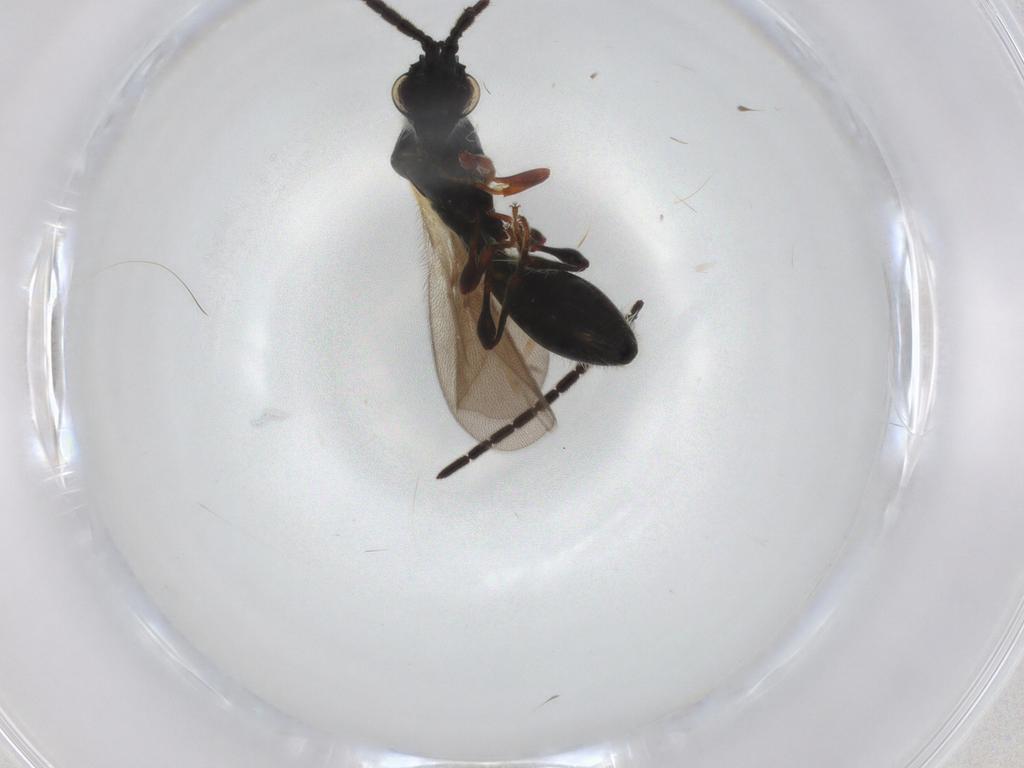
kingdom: Animalia
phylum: Arthropoda
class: Insecta
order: Hymenoptera
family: Diapriidae
